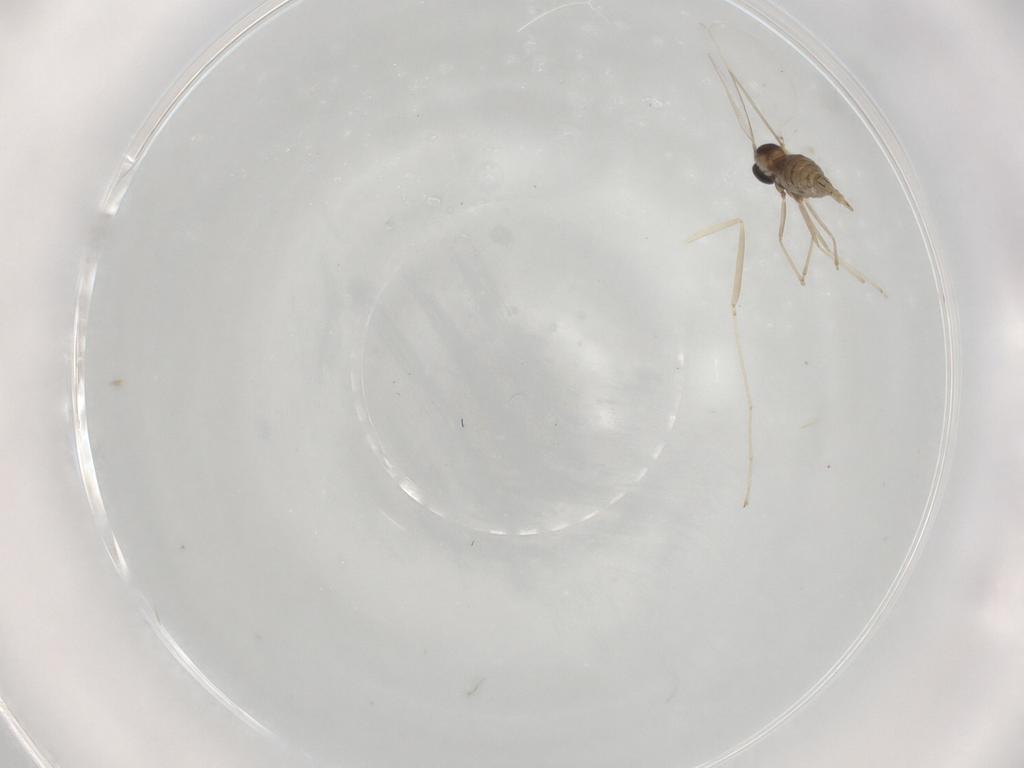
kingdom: Animalia
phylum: Arthropoda
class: Insecta
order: Diptera
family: Cecidomyiidae
